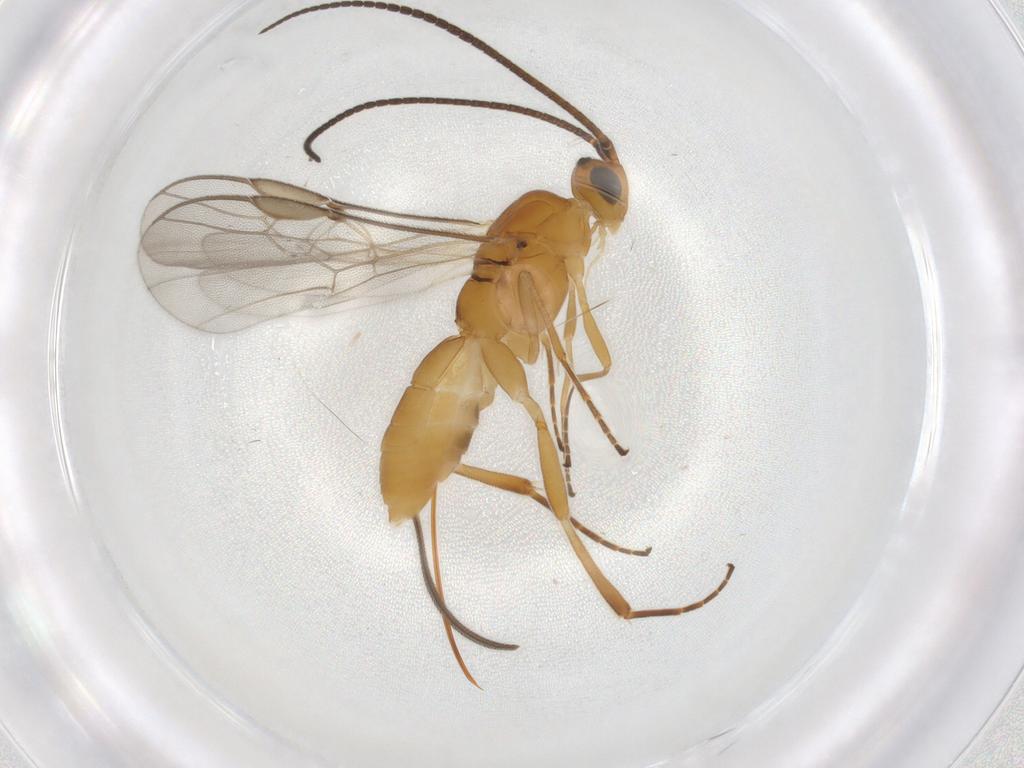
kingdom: Animalia
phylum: Arthropoda
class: Insecta
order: Hymenoptera
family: Braconidae
